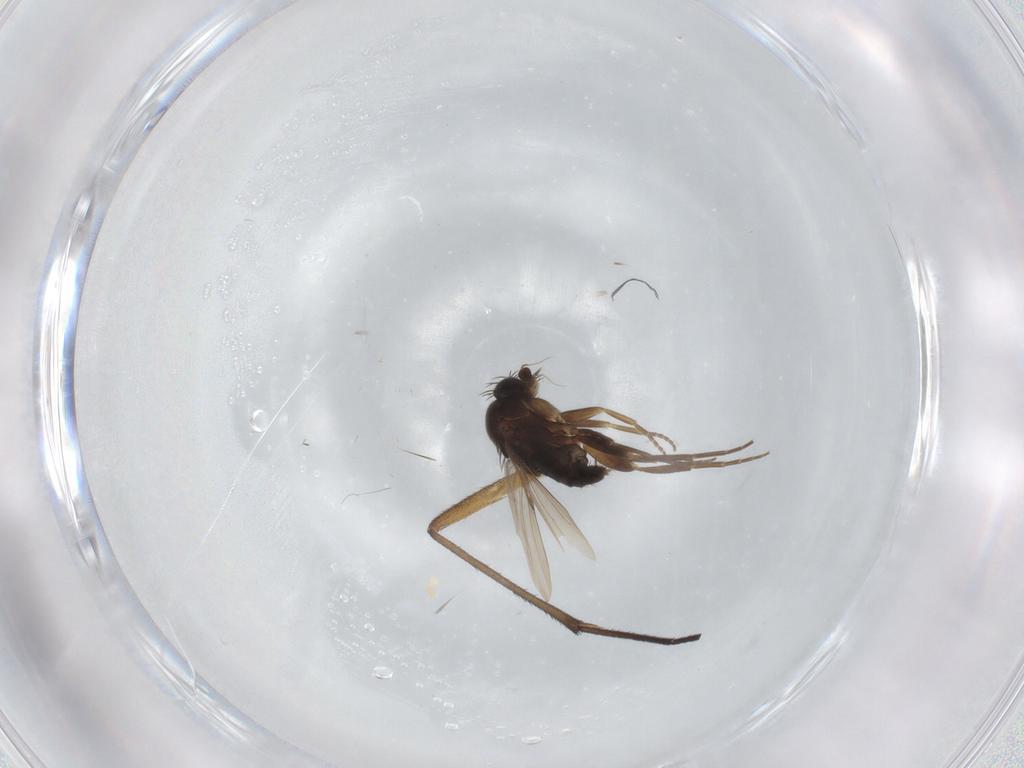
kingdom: Animalia
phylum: Arthropoda
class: Insecta
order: Diptera
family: Phoridae
